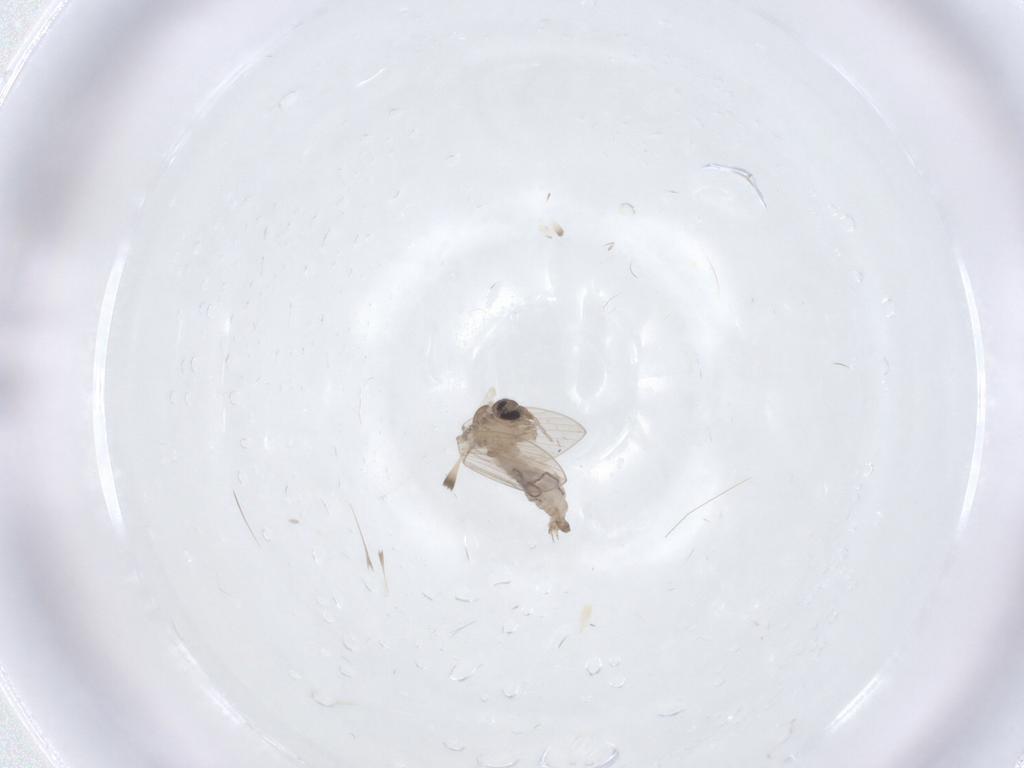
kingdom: Animalia
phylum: Arthropoda
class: Insecta
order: Diptera
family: Psychodidae
